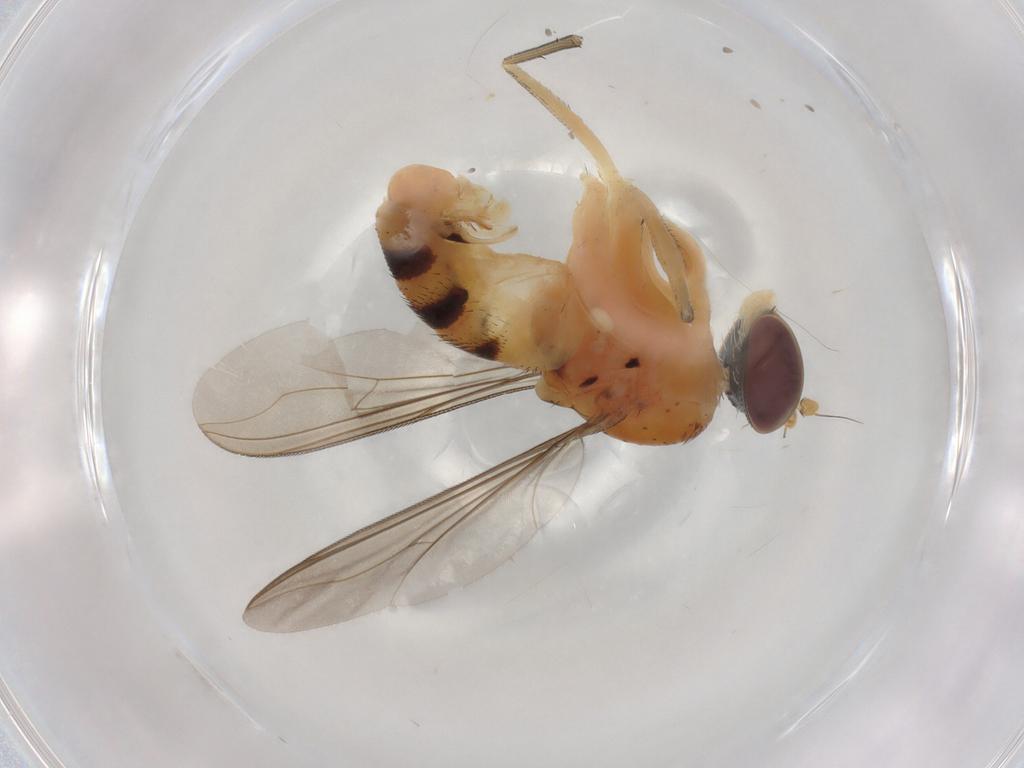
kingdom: Animalia
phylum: Arthropoda
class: Insecta
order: Diptera
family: Dolichopodidae
